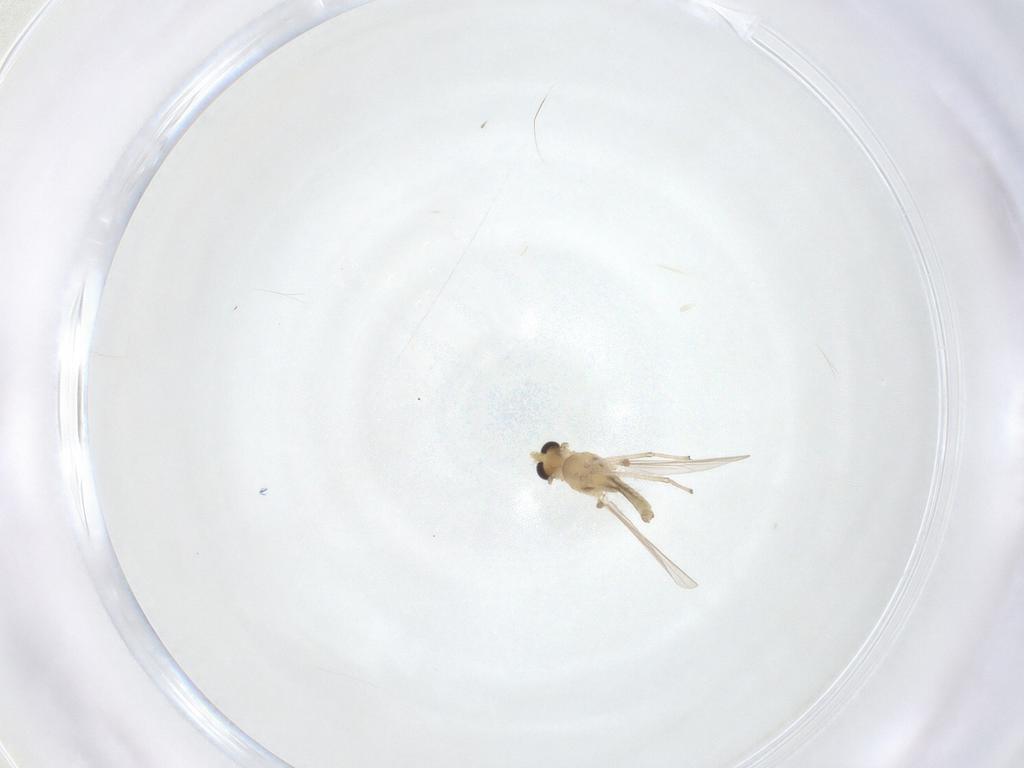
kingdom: Animalia
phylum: Arthropoda
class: Insecta
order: Diptera
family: Chironomidae
